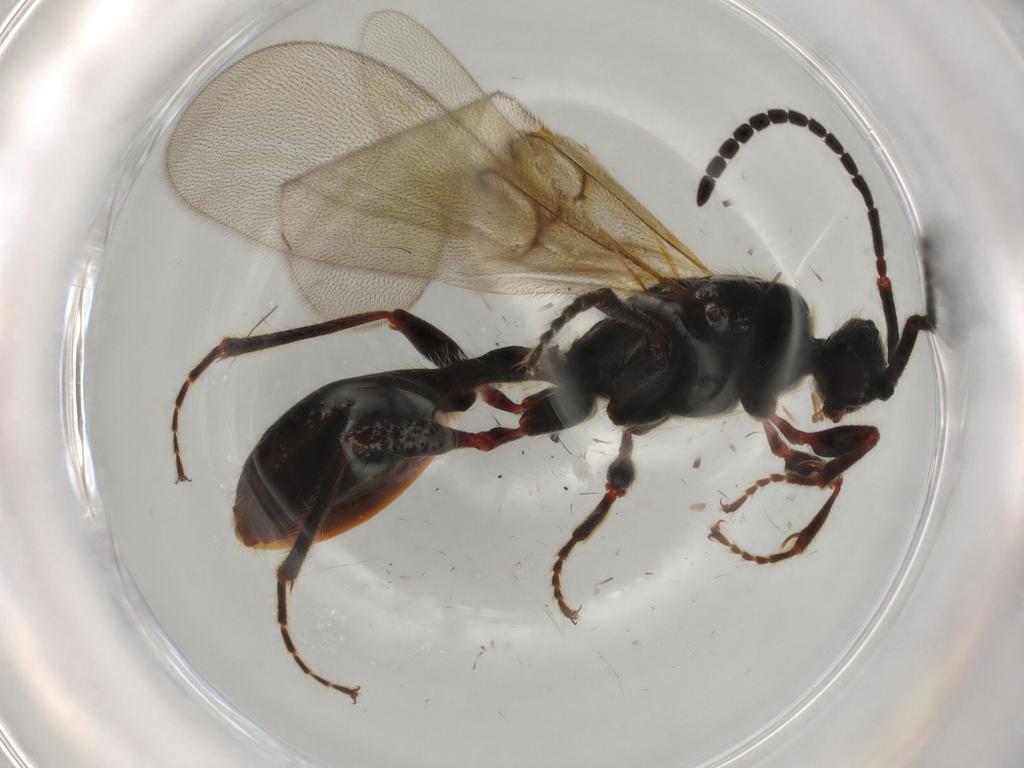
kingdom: Animalia
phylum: Arthropoda
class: Insecta
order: Hymenoptera
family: Diapriidae
